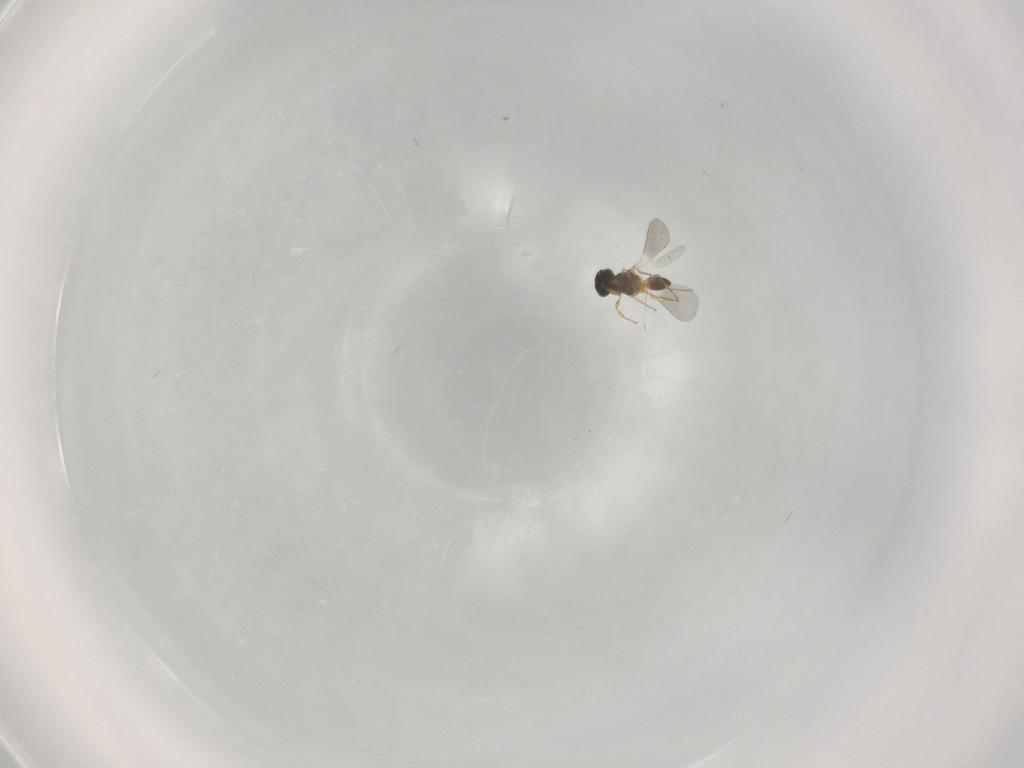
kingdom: Animalia
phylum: Arthropoda
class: Insecta
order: Hymenoptera
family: Platygastridae
